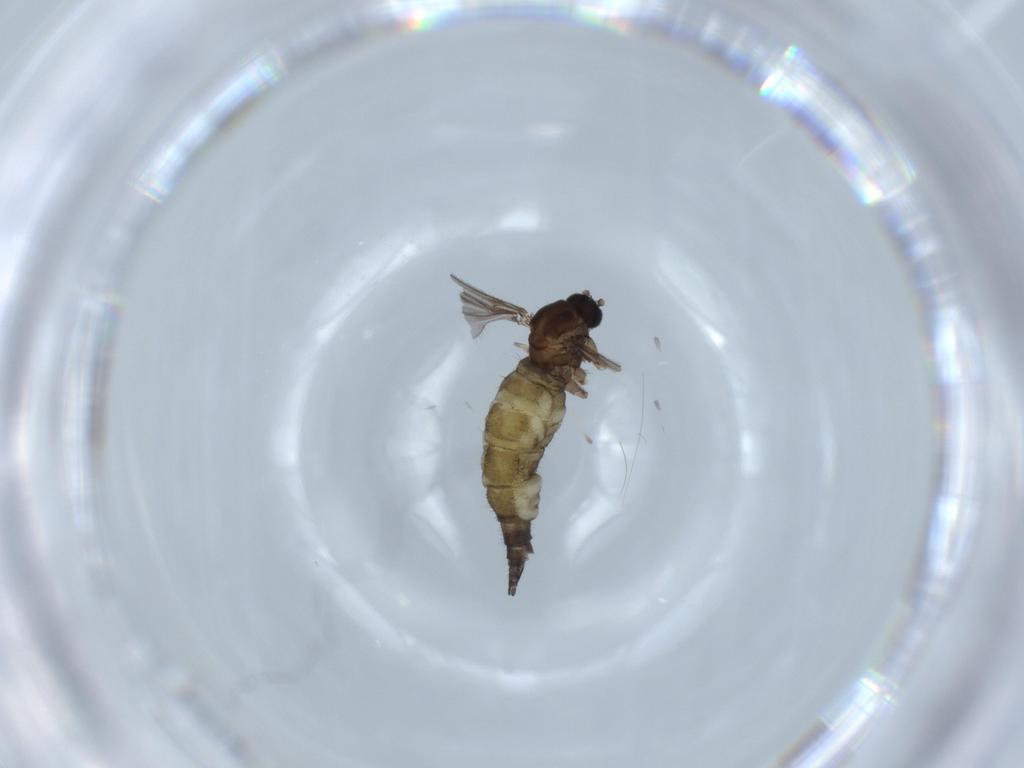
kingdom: Animalia
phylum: Arthropoda
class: Insecta
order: Diptera
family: Sciaridae
